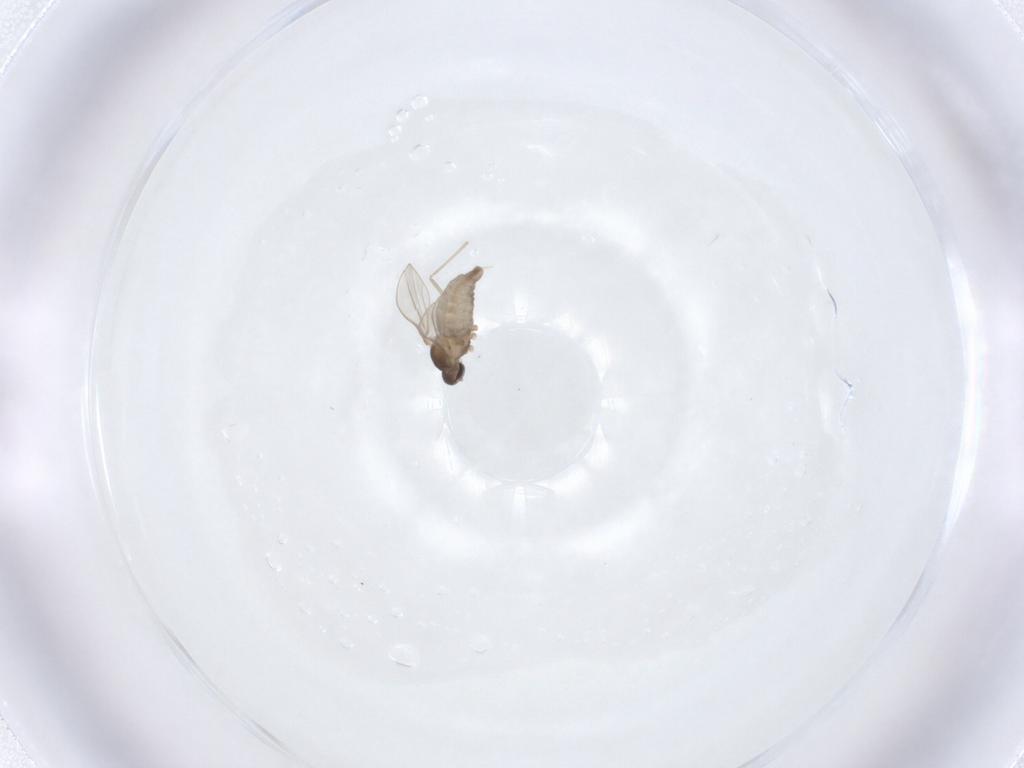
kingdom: Animalia
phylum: Arthropoda
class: Insecta
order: Diptera
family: Cecidomyiidae
